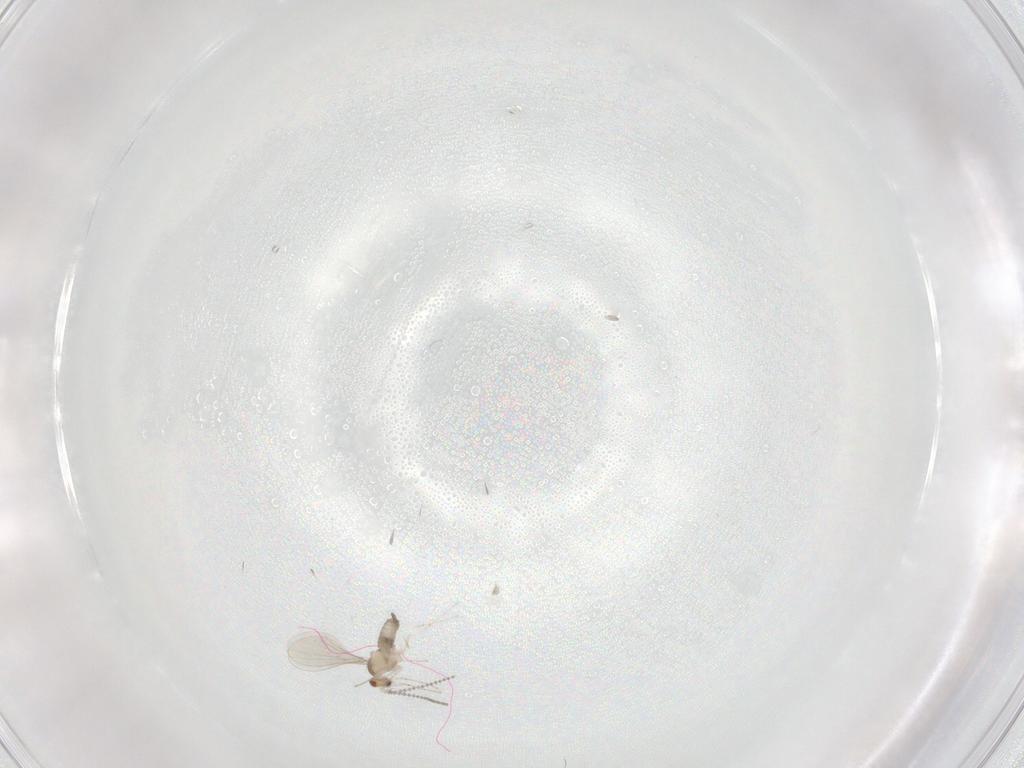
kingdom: Animalia
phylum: Arthropoda
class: Insecta
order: Diptera
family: Cecidomyiidae
